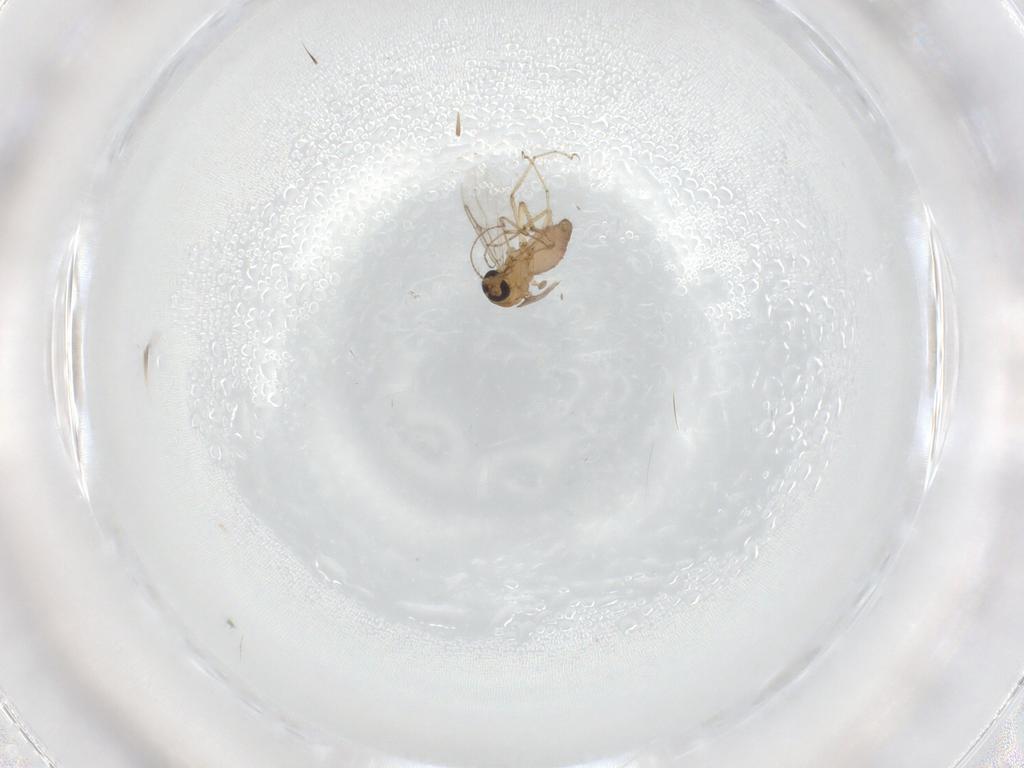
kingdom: Animalia
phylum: Arthropoda
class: Insecta
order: Diptera
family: Ceratopogonidae
